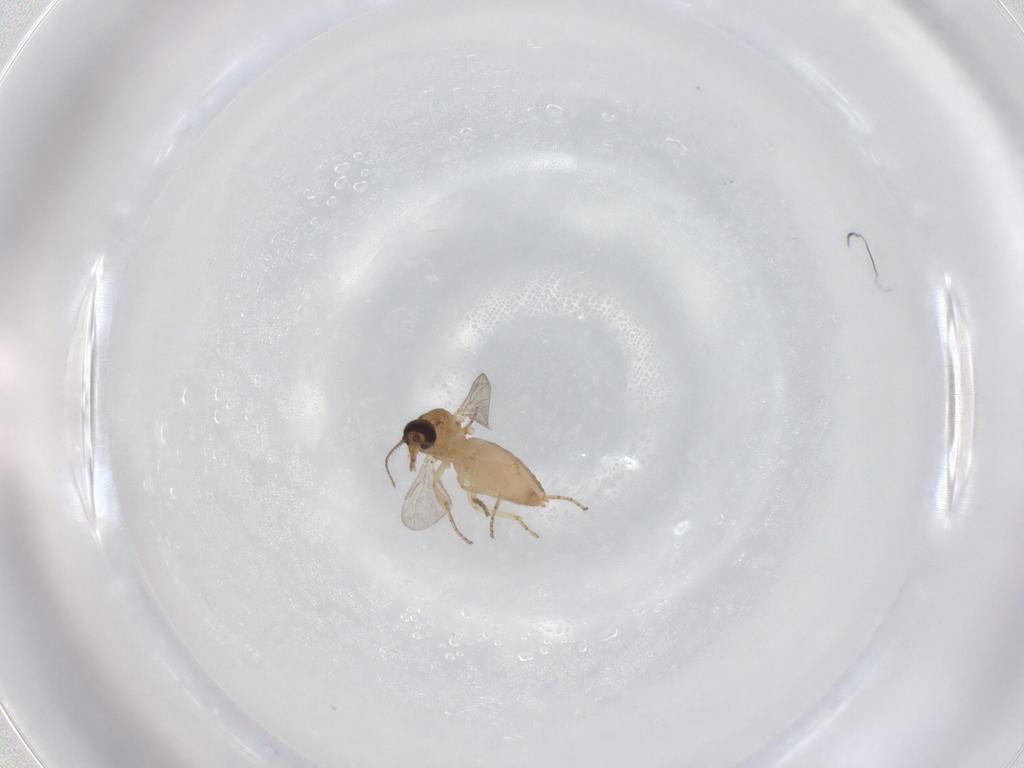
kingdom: Animalia
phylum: Arthropoda
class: Insecta
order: Diptera
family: Ceratopogonidae
